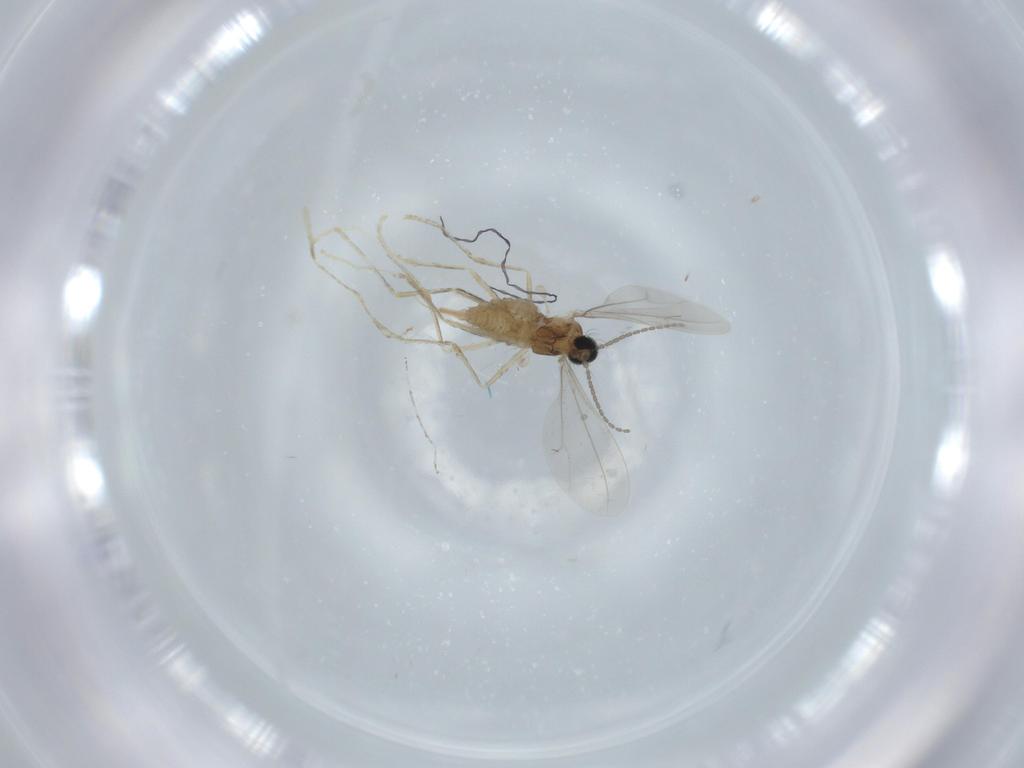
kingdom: Animalia
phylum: Arthropoda
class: Insecta
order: Diptera
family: Cecidomyiidae
